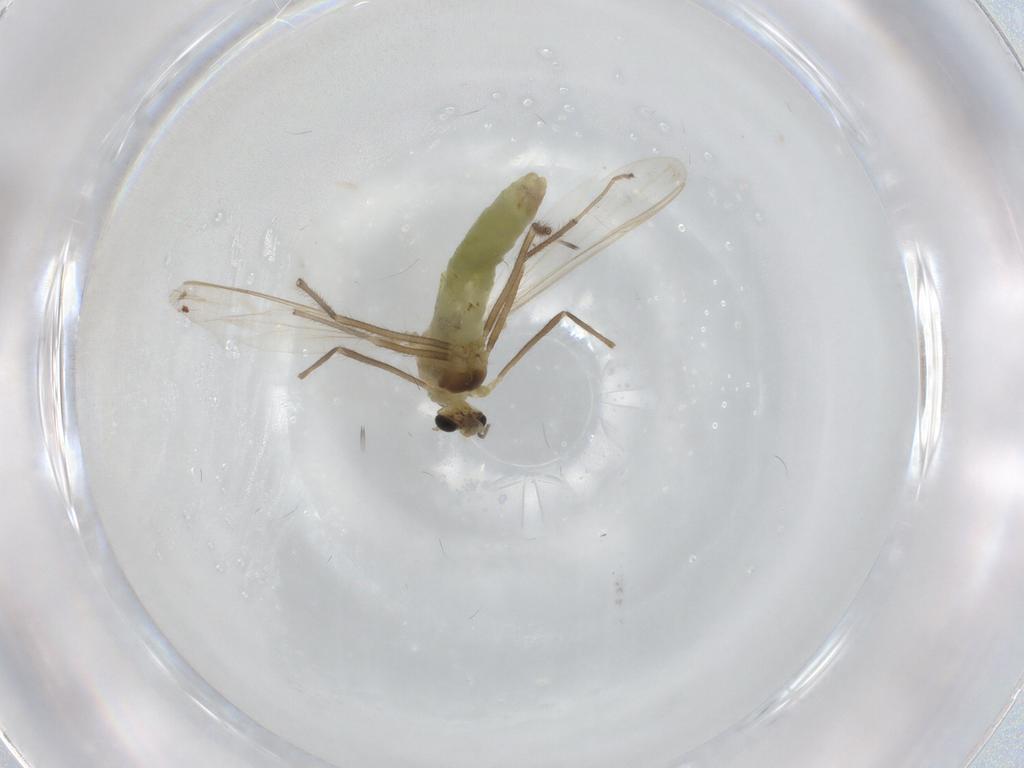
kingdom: Animalia
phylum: Arthropoda
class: Insecta
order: Diptera
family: Chironomidae
